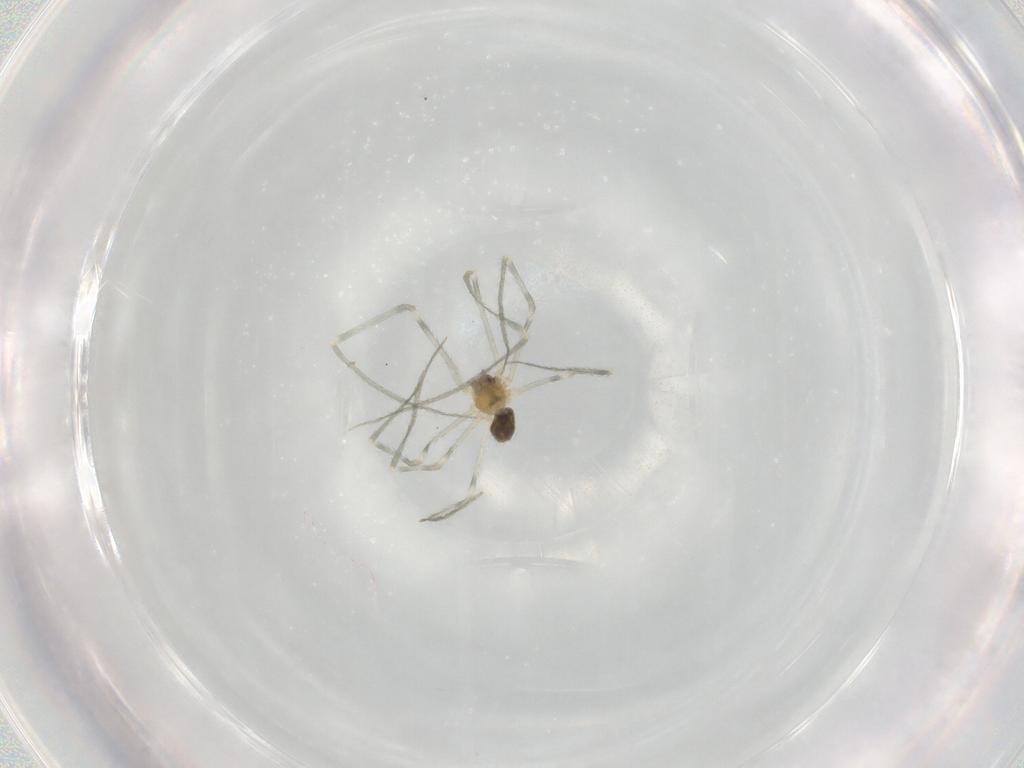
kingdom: Animalia
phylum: Arthropoda
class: Arachnida
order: Araneae
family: Pholcidae
